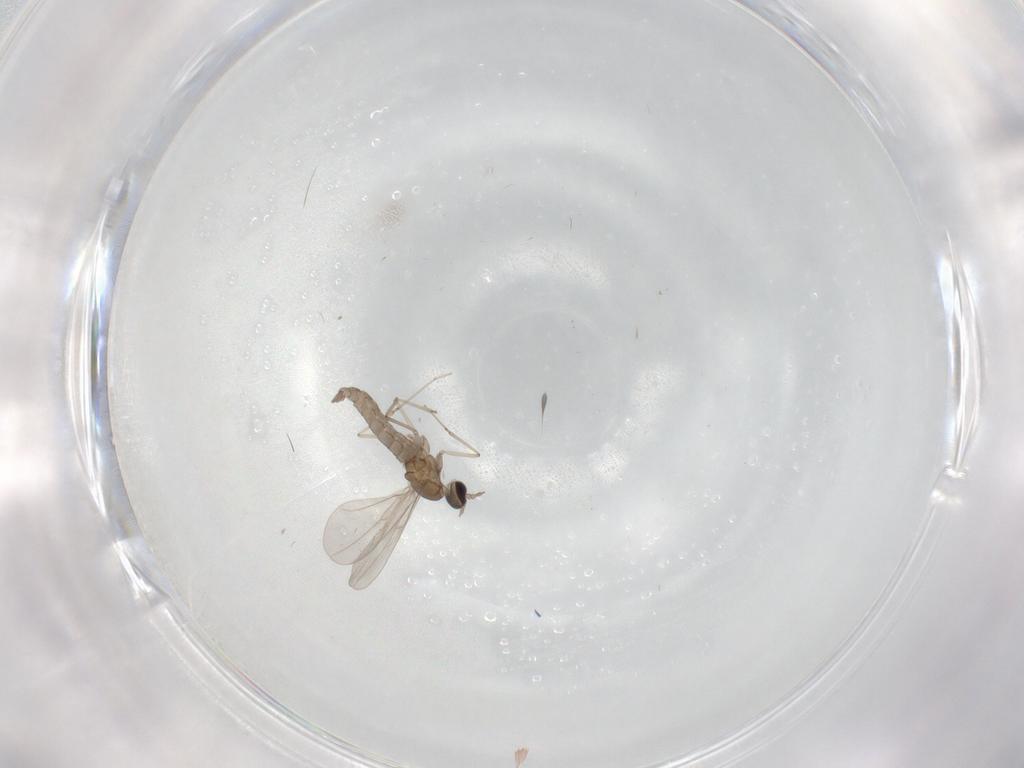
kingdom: Animalia
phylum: Arthropoda
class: Insecta
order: Diptera
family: Cecidomyiidae
